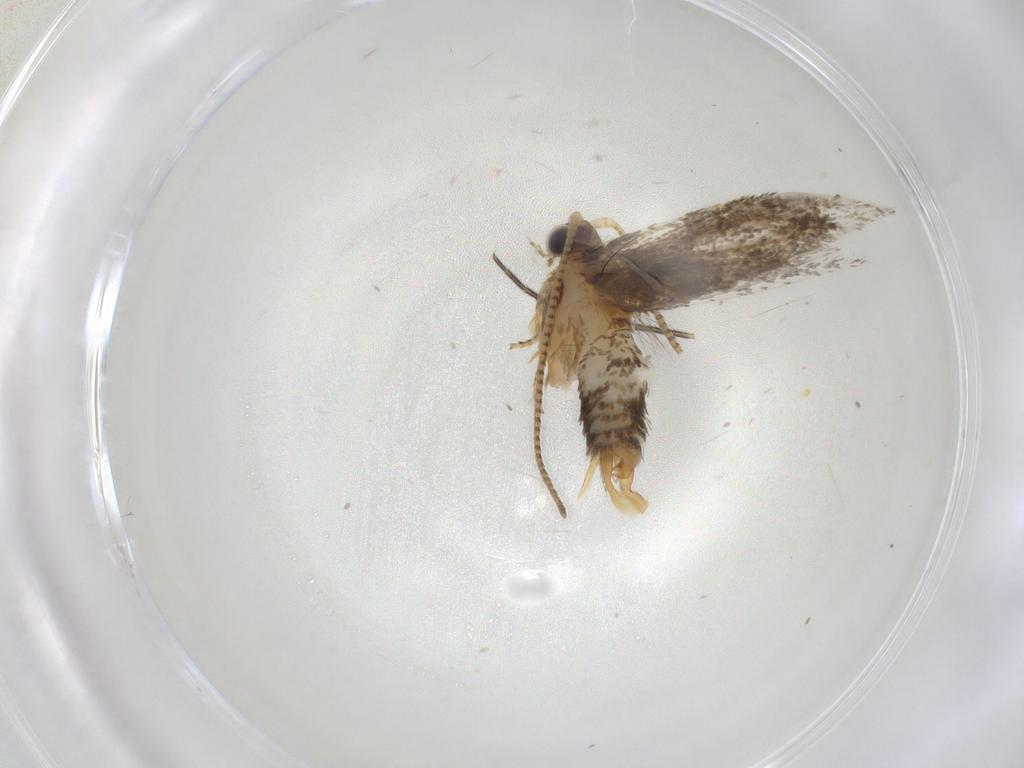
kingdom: Animalia
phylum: Arthropoda
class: Insecta
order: Lepidoptera
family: Tineidae
